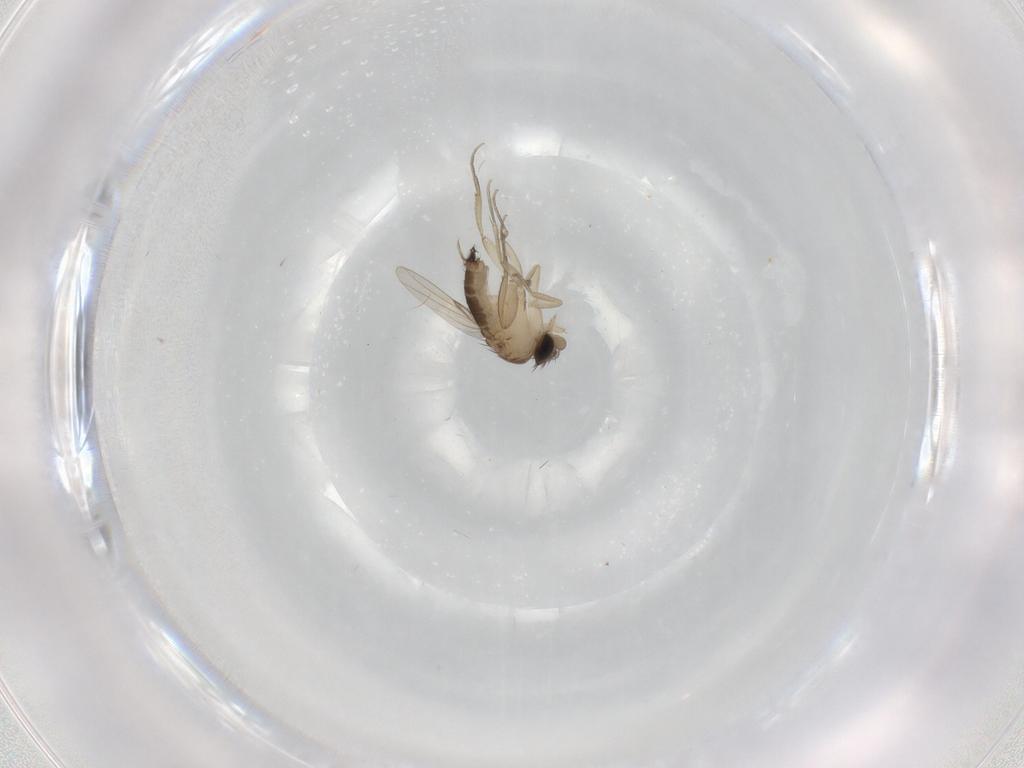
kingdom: Animalia
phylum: Arthropoda
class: Insecta
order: Diptera
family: Phoridae
